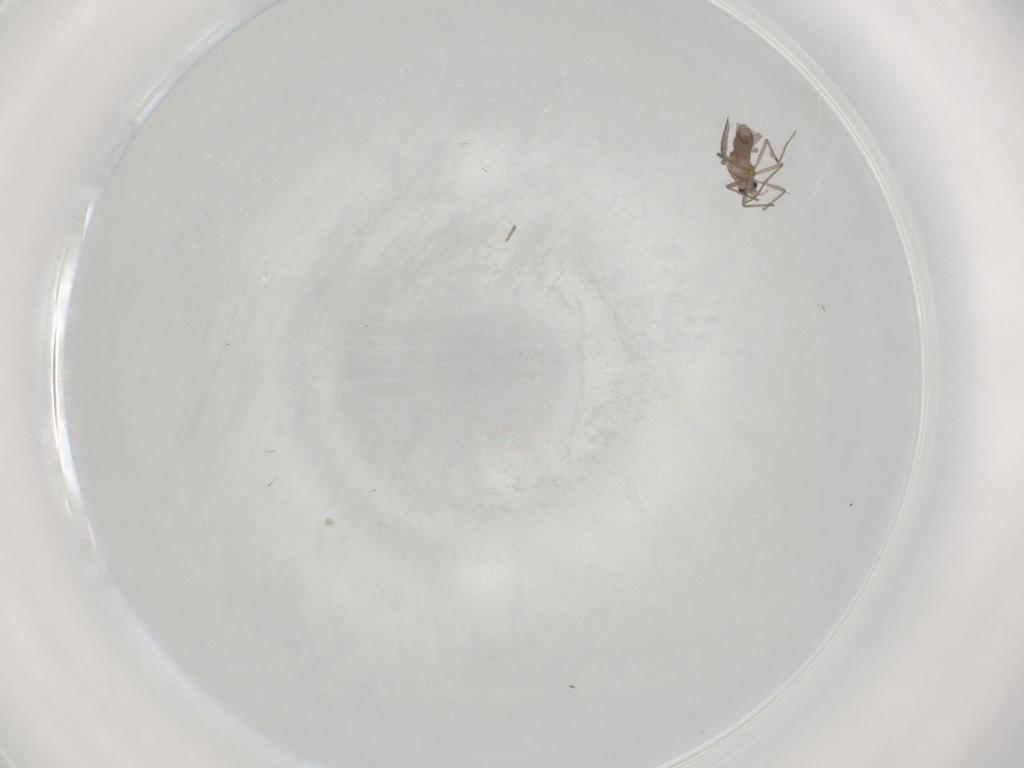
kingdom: Animalia
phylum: Arthropoda
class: Insecta
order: Diptera
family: Chironomidae
